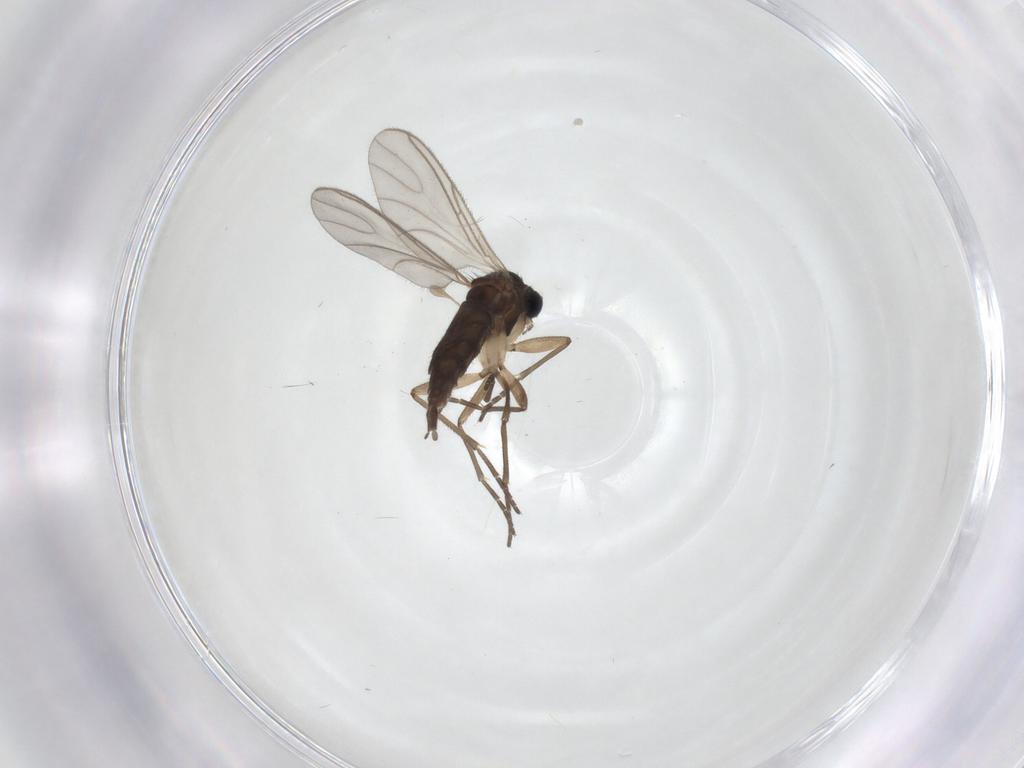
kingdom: Animalia
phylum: Arthropoda
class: Insecta
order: Diptera
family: Sciaridae
